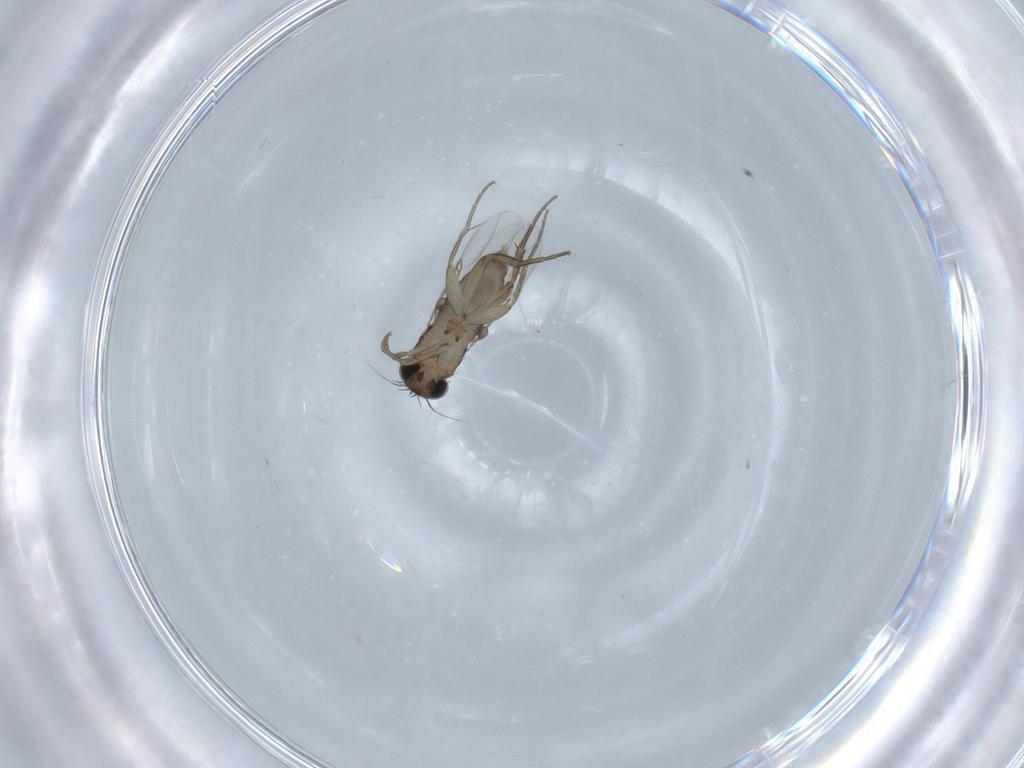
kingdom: Animalia
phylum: Arthropoda
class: Insecta
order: Diptera
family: Phoridae
